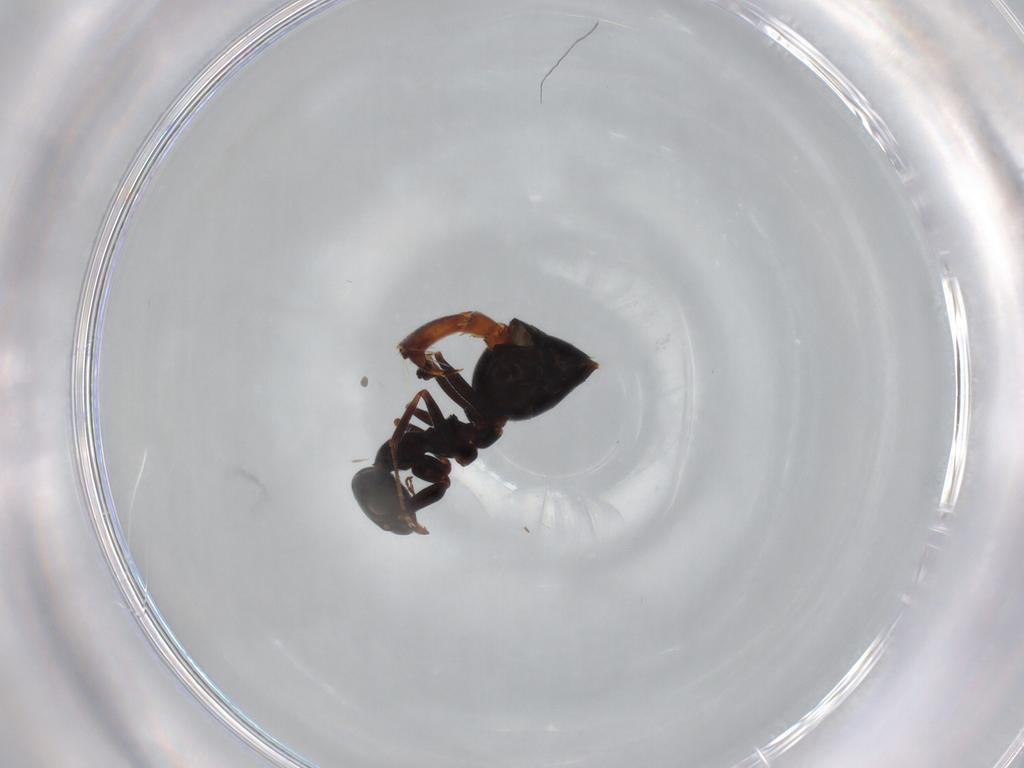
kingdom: Animalia
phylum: Arthropoda
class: Insecta
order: Hymenoptera
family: Formicidae
